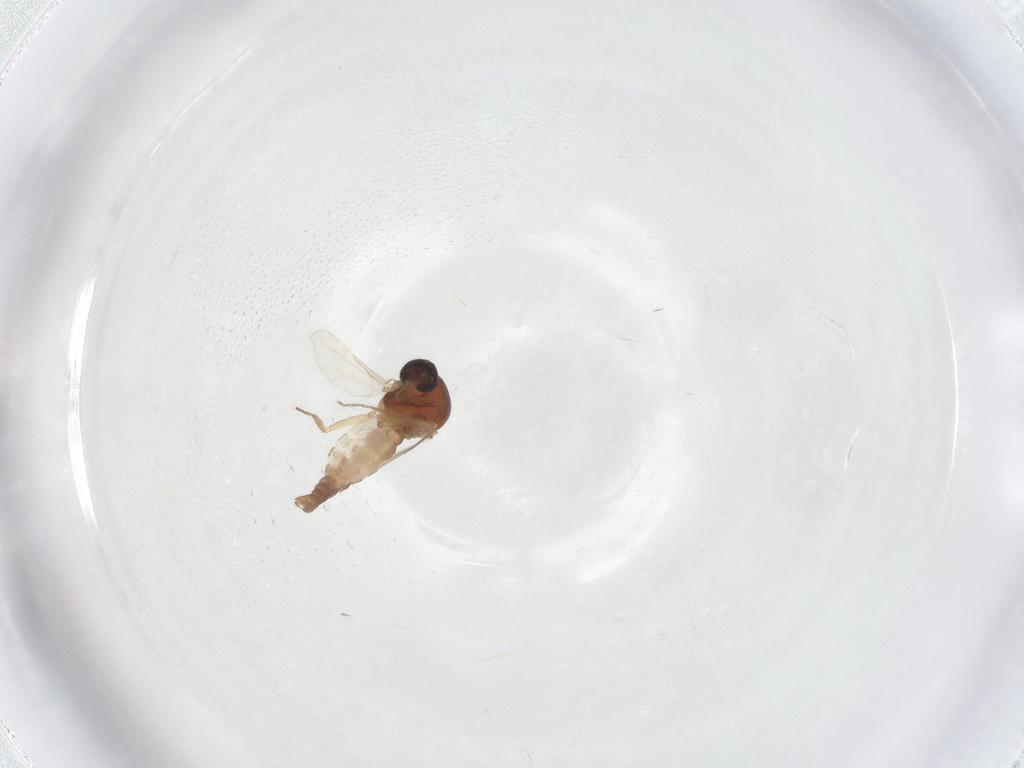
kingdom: Animalia
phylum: Arthropoda
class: Insecta
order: Diptera
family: Ceratopogonidae
